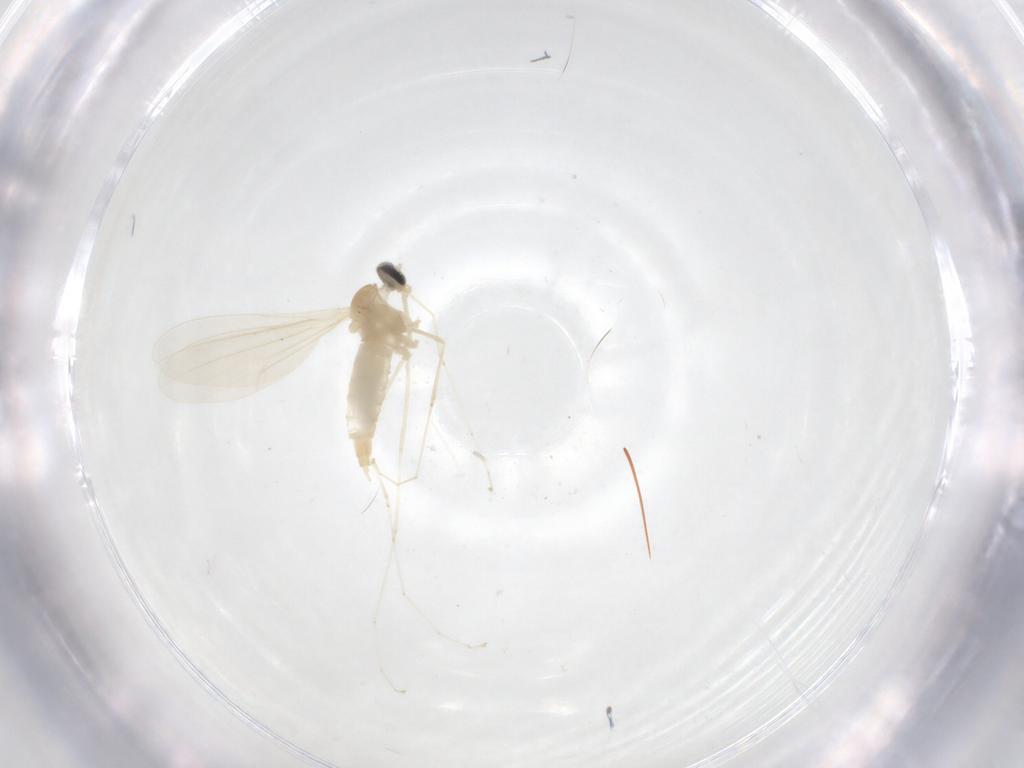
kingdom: Animalia
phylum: Arthropoda
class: Insecta
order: Diptera
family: Cecidomyiidae
